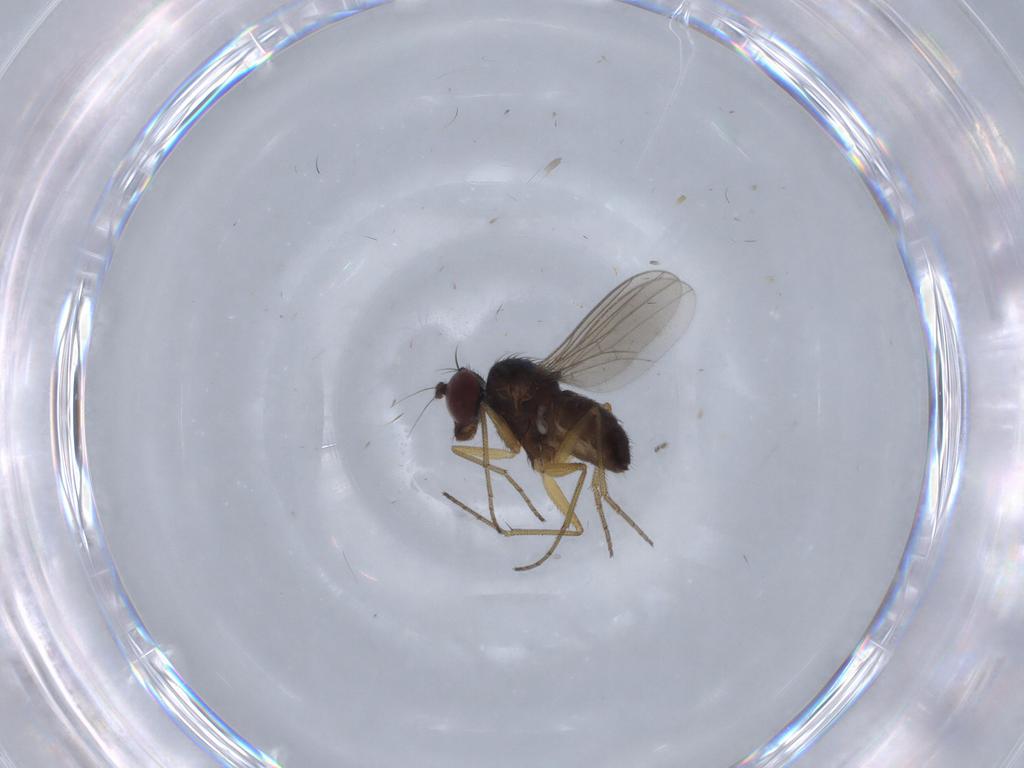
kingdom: Animalia
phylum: Arthropoda
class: Insecta
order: Diptera
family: Dolichopodidae
